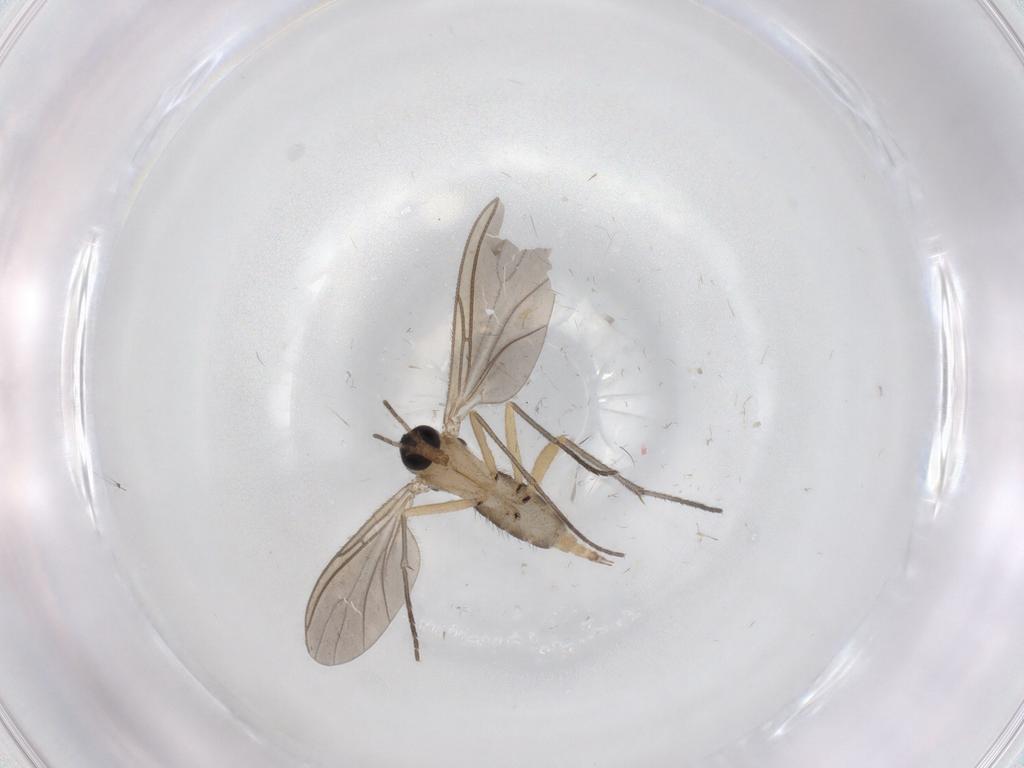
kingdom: Animalia
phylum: Arthropoda
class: Insecta
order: Diptera
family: Sciaridae
